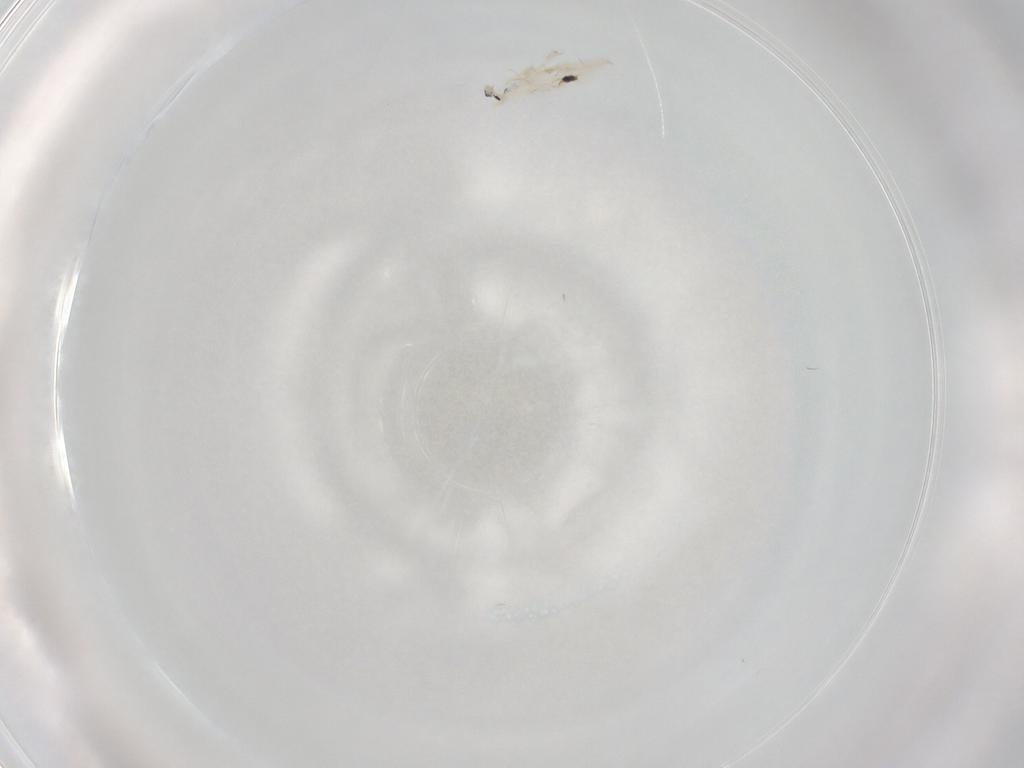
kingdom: Animalia
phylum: Arthropoda
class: Collembola
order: Entomobryomorpha
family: Entomobryidae
